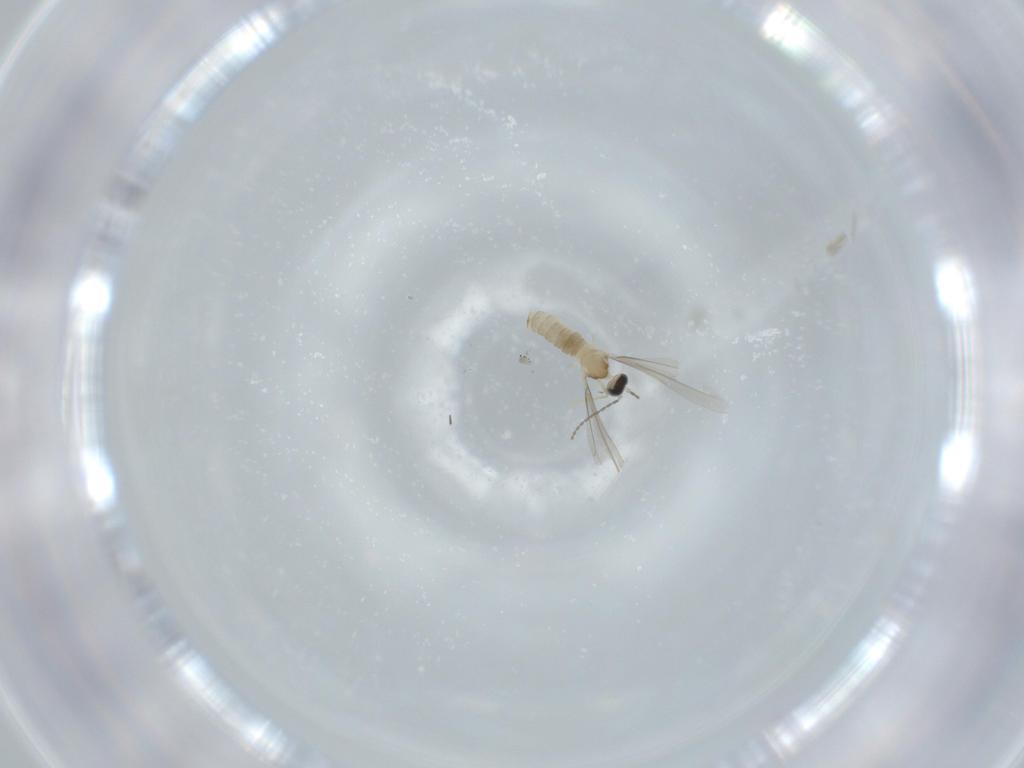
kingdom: Animalia
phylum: Arthropoda
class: Insecta
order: Diptera
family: Cecidomyiidae
